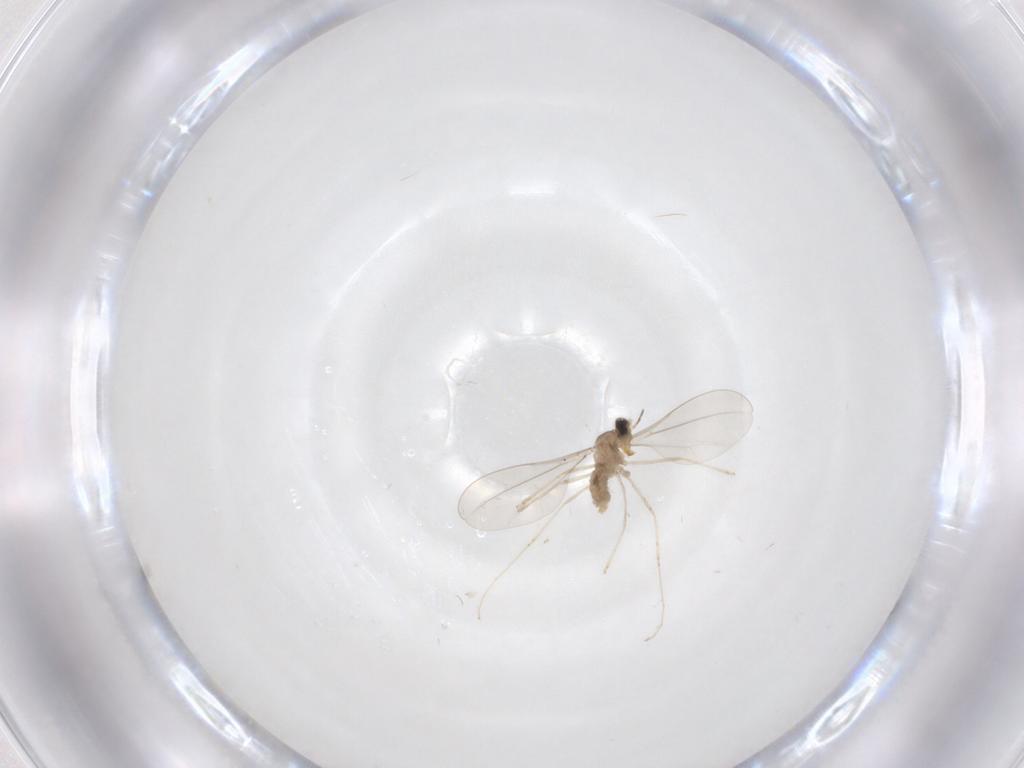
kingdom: Animalia
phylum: Arthropoda
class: Insecta
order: Diptera
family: Cecidomyiidae
